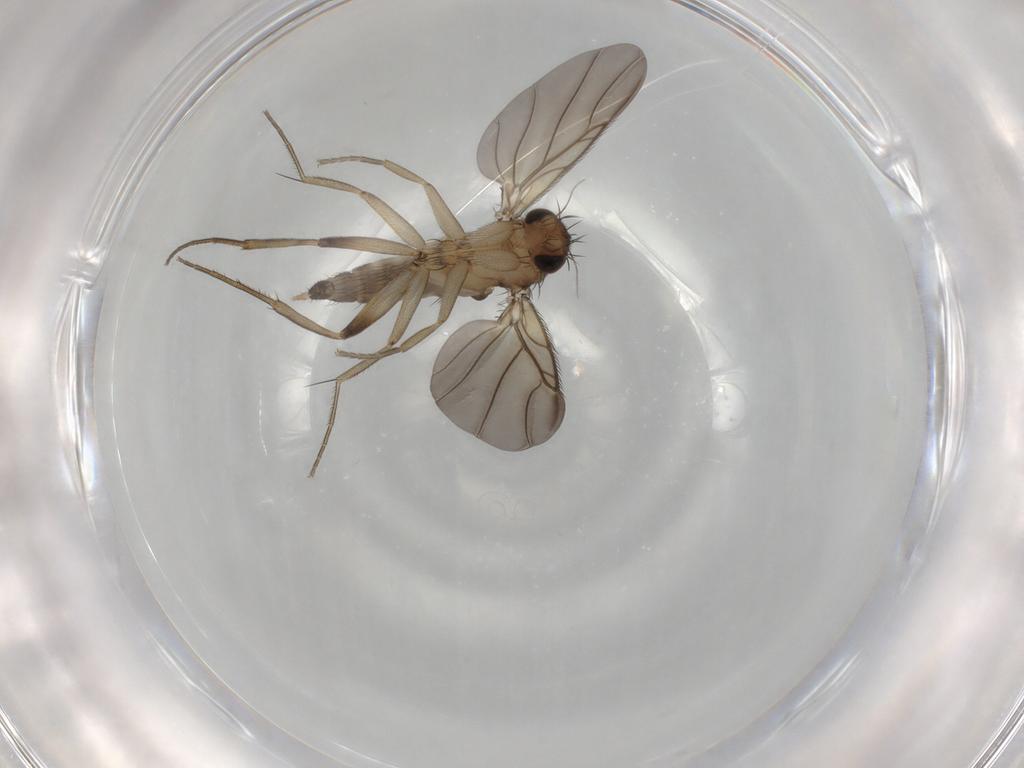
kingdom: Animalia
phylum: Arthropoda
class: Insecta
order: Diptera
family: Phoridae
